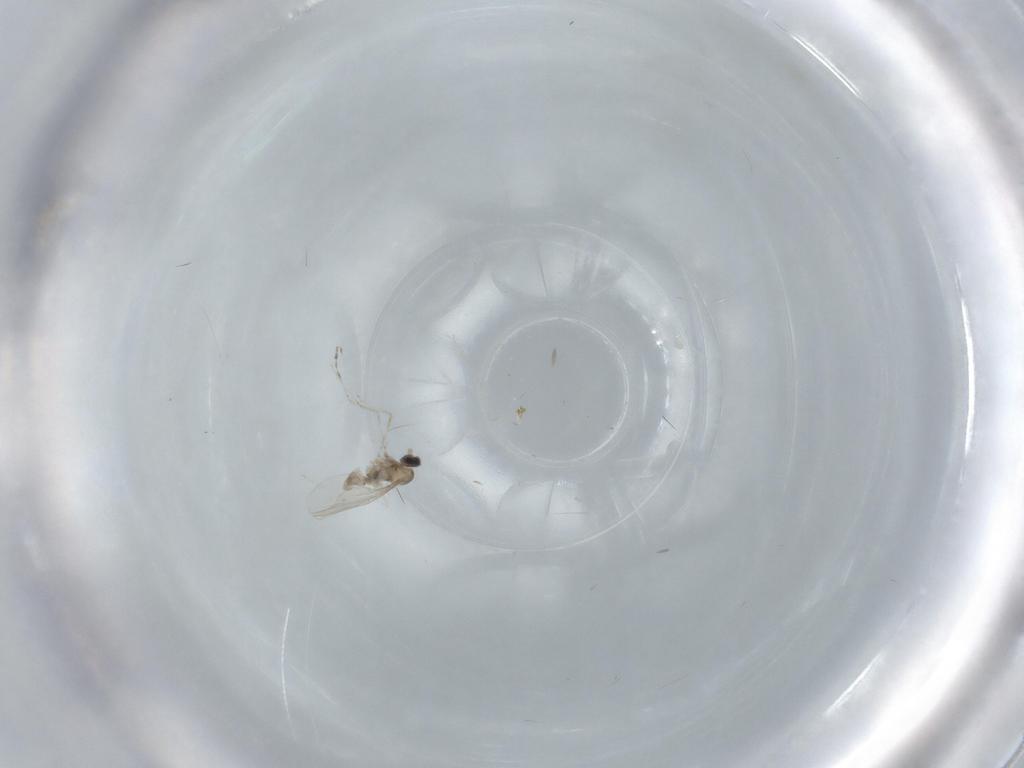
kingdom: Animalia
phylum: Arthropoda
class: Insecta
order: Diptera
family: Cecidomyiidae
